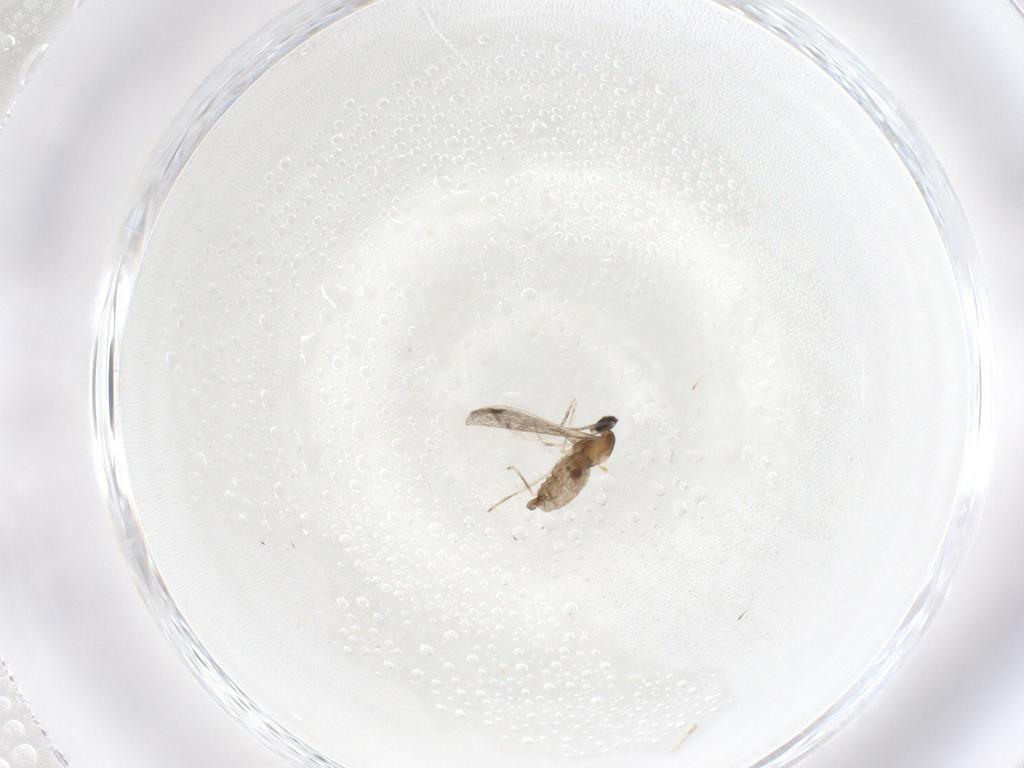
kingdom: Animalia
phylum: Arthropoda
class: Insecta
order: Diptera
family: Cecidomyiidae
